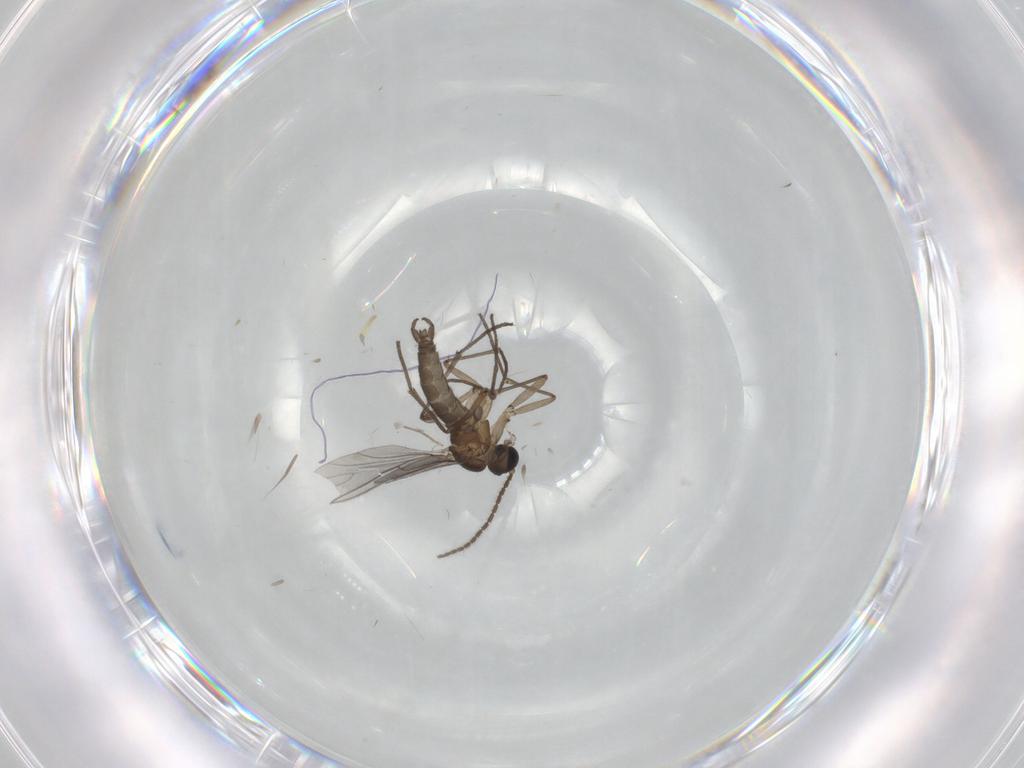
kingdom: Animalia
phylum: Arthropoda
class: Insecta
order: Diptera
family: Chironomidae
